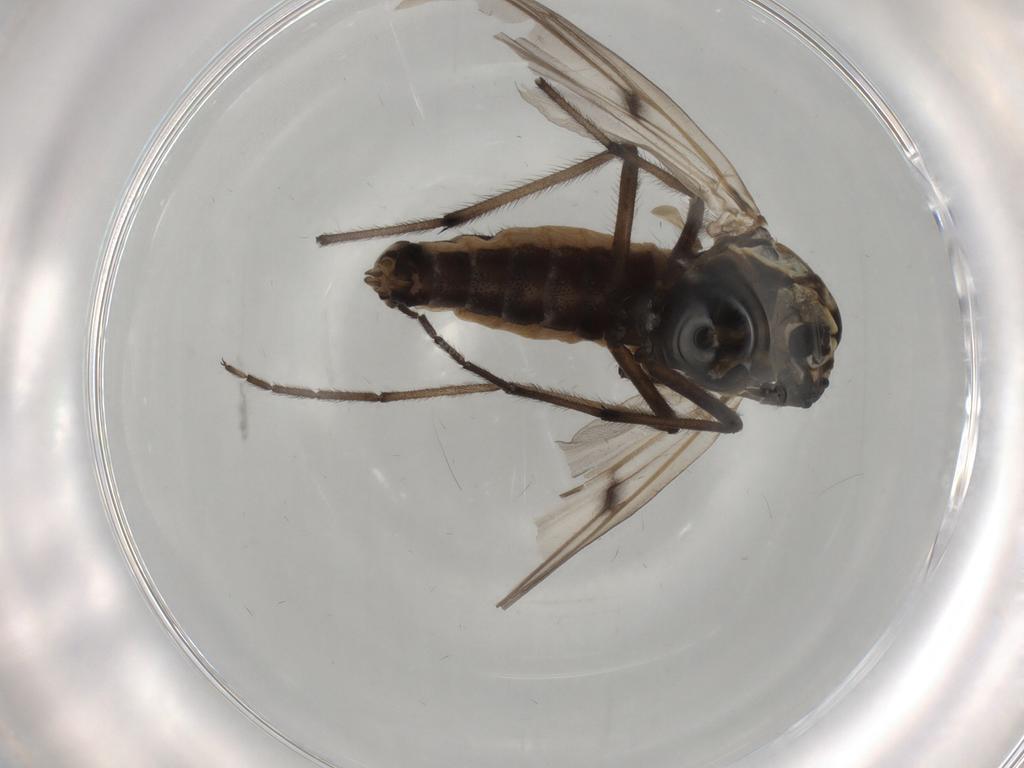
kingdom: Animalia
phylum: Arthropoda
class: Insecta
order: Diptera
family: Chironomidae
